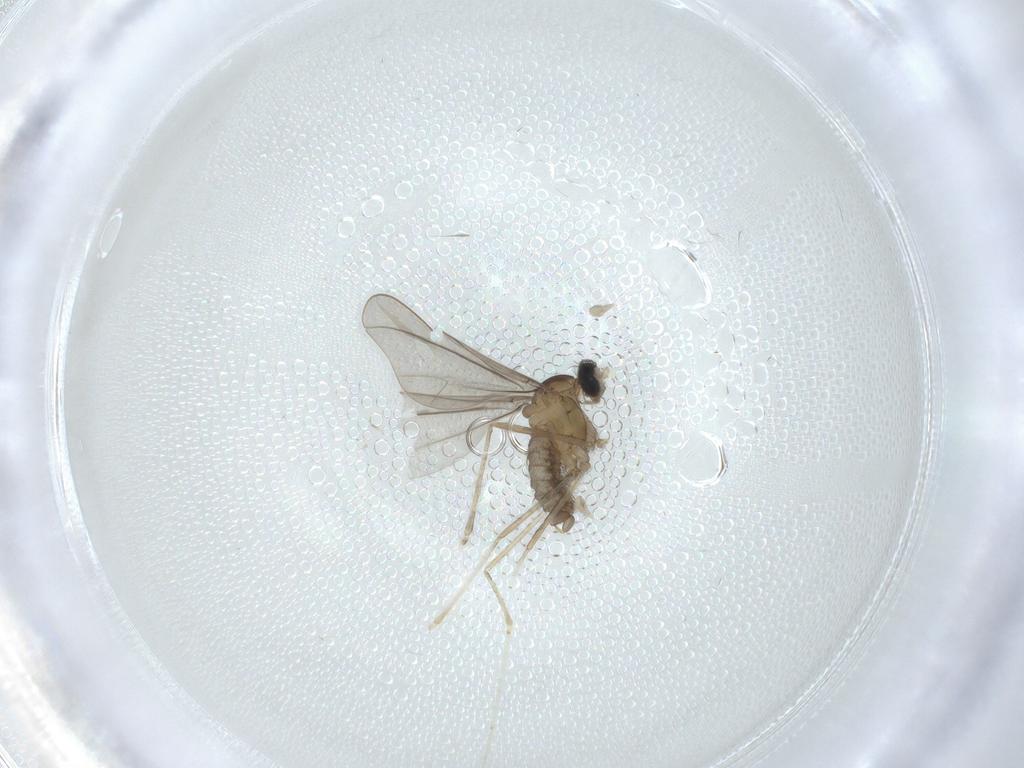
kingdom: Animalia
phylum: Arthropoda
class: Insecta
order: Diptera
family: Cecidomyiidae
